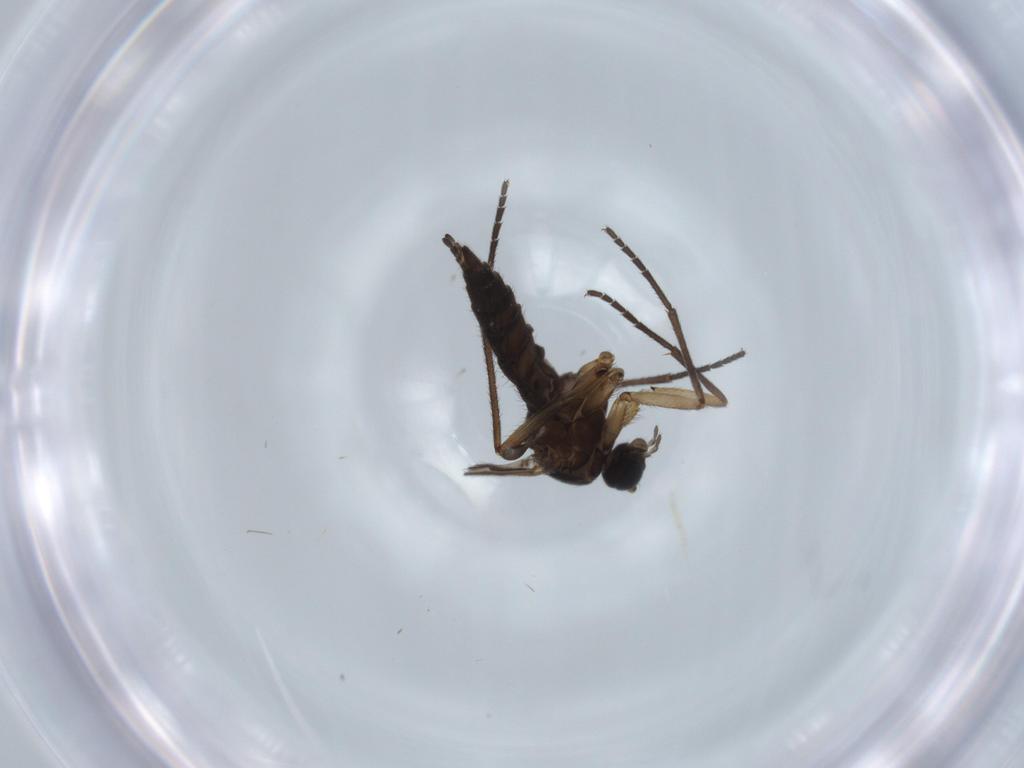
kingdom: Animalia
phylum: Arthropoda
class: Insecta
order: Diptera
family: Sciaridae
